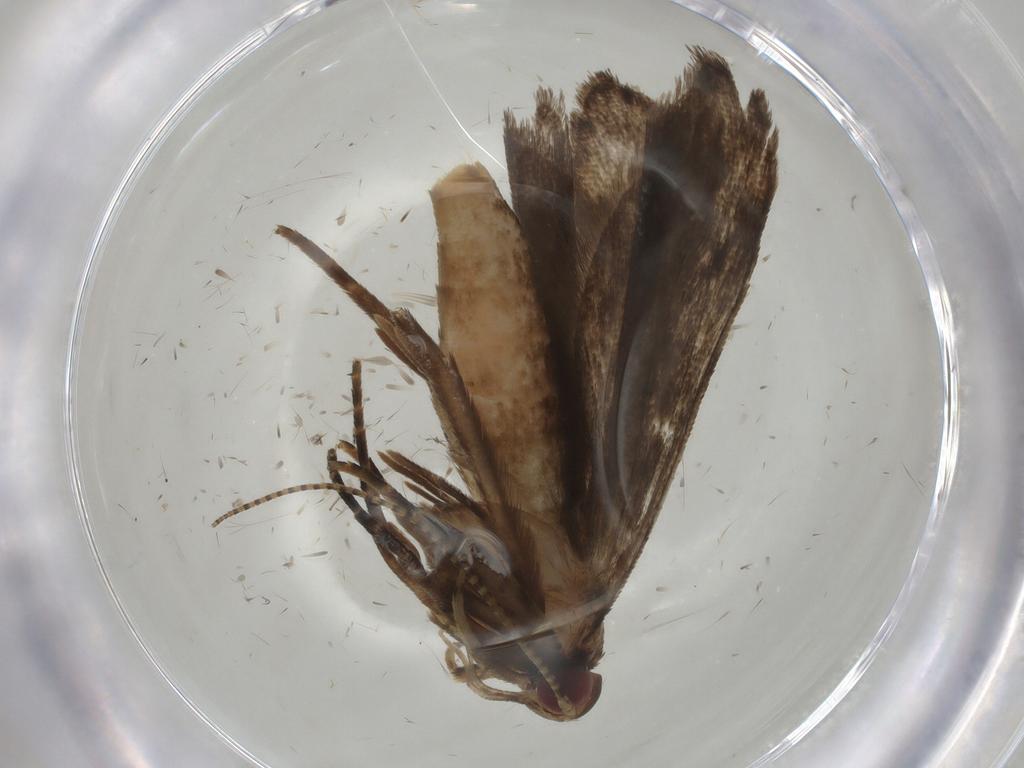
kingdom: Animalia
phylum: Arthropoda
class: Insecta
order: Lepidoptera
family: Gelechiidae
